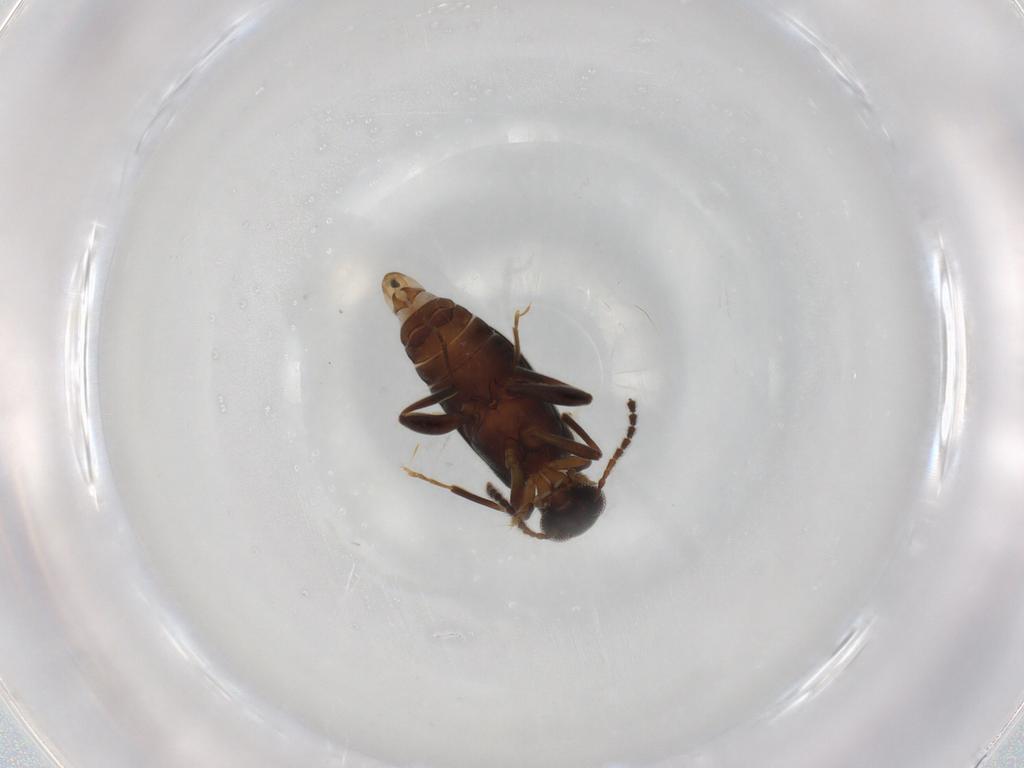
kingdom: Animalia
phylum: Arthropoda
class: Insecta
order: Coleoptera
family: Aderidae
